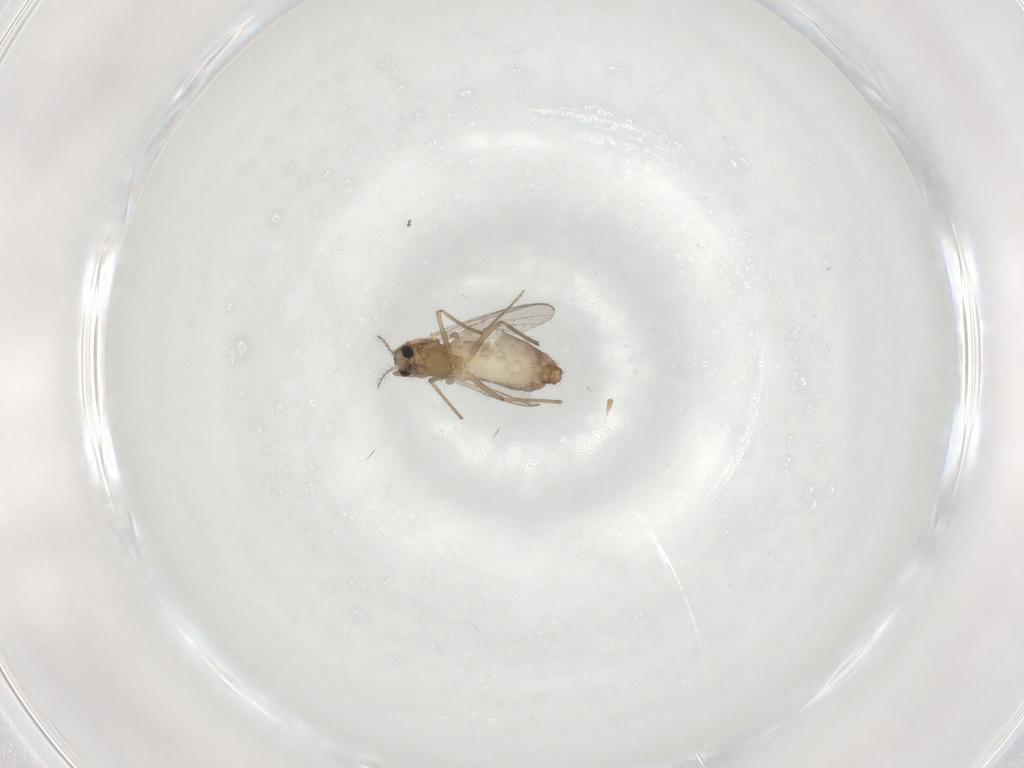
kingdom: Animalia
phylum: Arthropoda
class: Insecta
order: Diptera
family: Chironomidae
